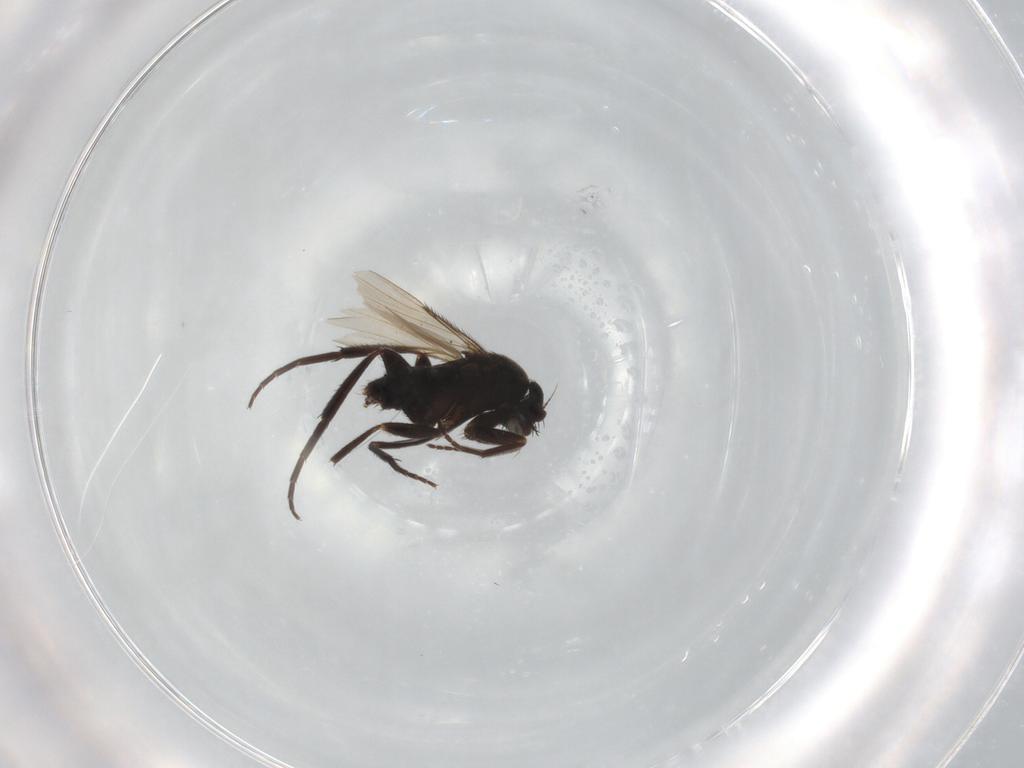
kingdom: Animalia
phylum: Arthropoda
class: Insecta
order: Diptera
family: Phoridae
